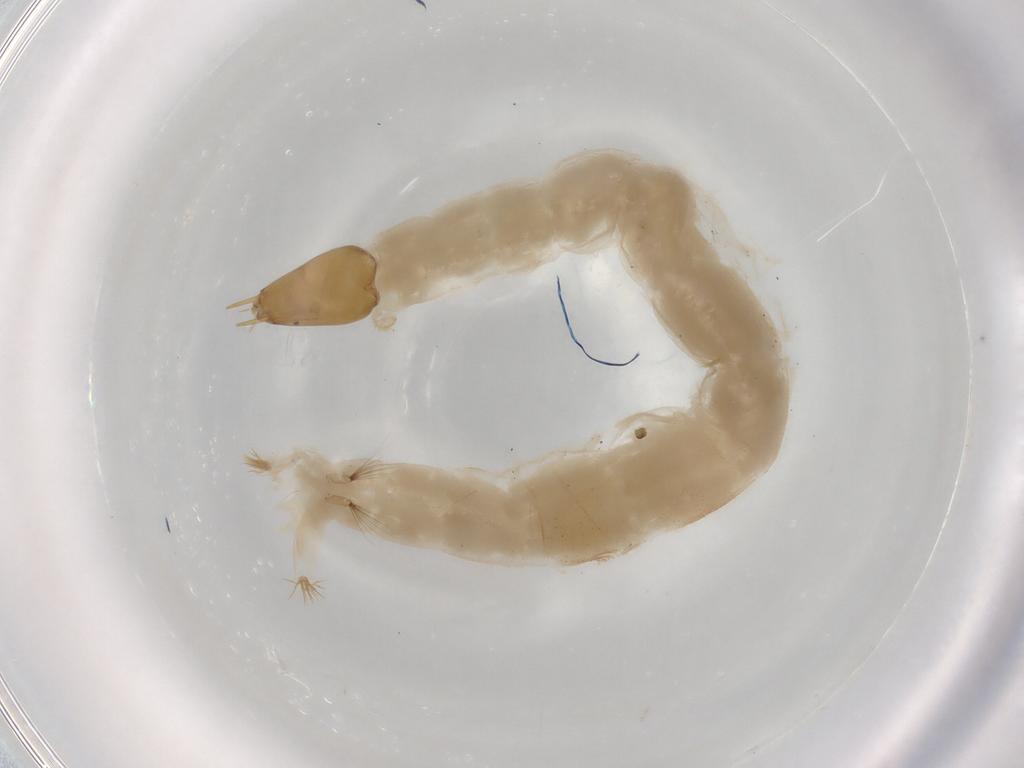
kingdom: Animalia
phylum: Arthropoda
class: Insecta
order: Diptera
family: Chironomidae
